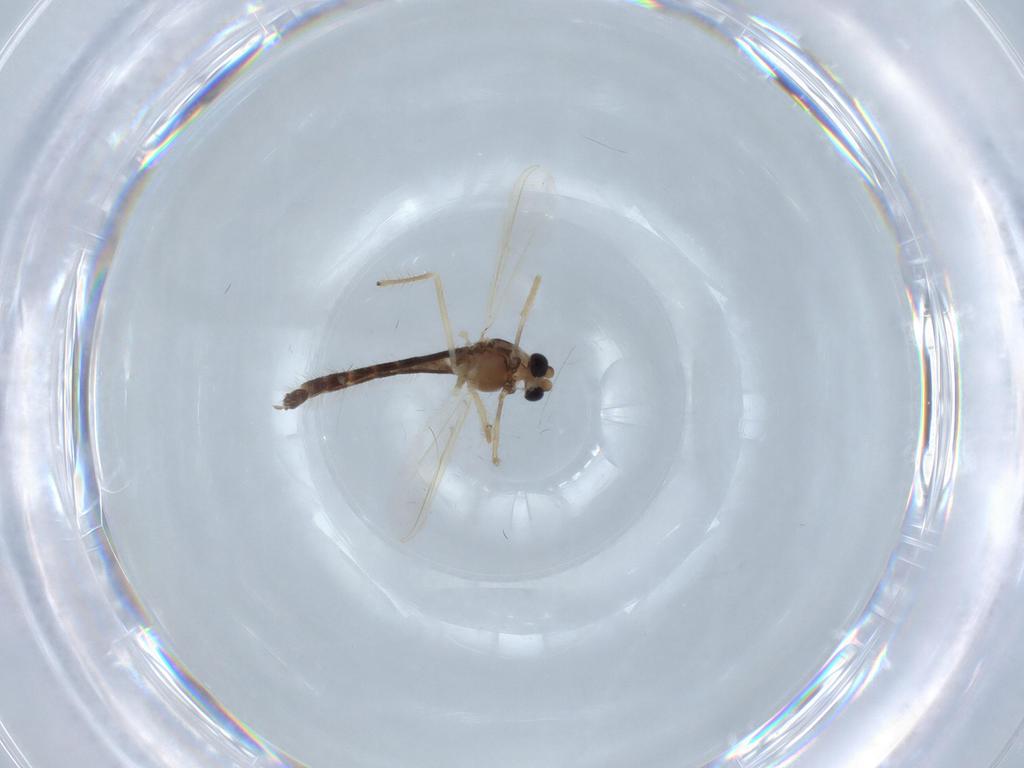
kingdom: Animalia
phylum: Arthropoda
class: Insecta
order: Diptera
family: Chironomidae
